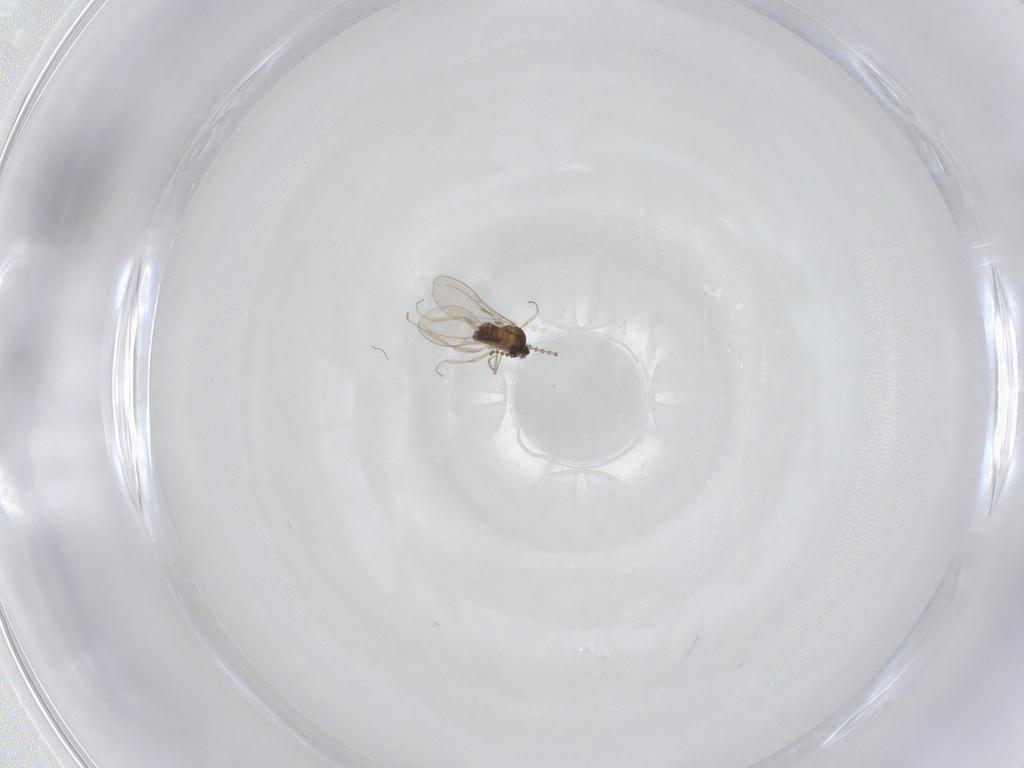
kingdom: Animalia
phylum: Arthropoda
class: Insecta
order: Diptera
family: Cecidomyiidae
